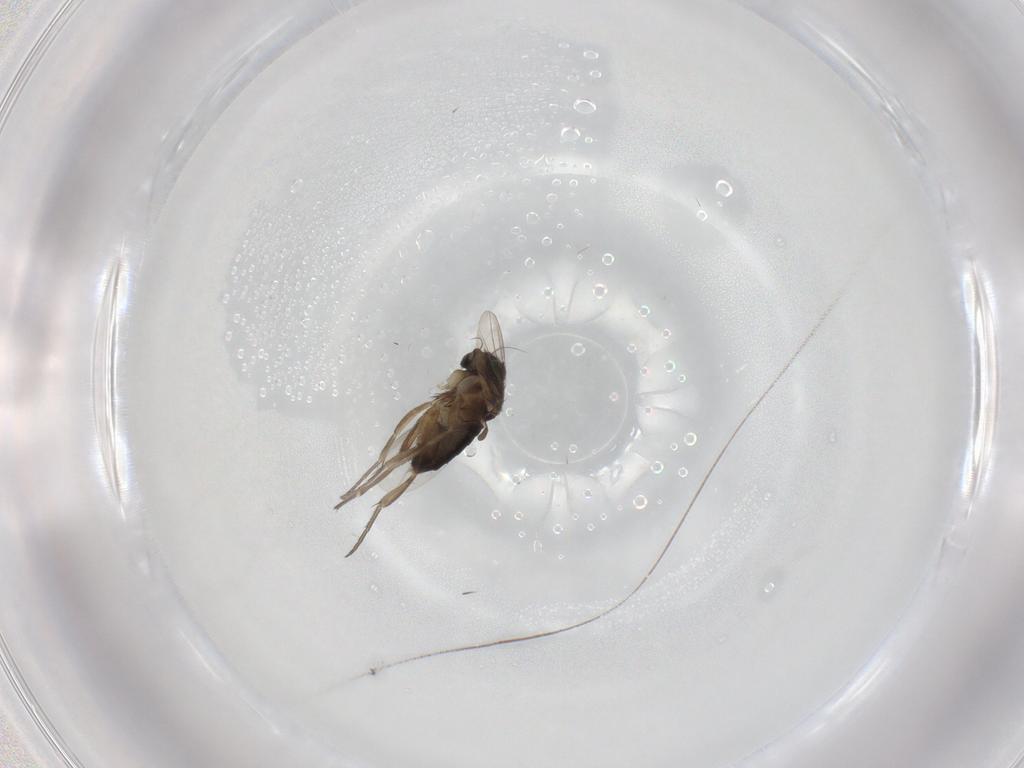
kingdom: Animalia
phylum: Arthropoda
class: Insecta
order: Diptera
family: Phoridae
